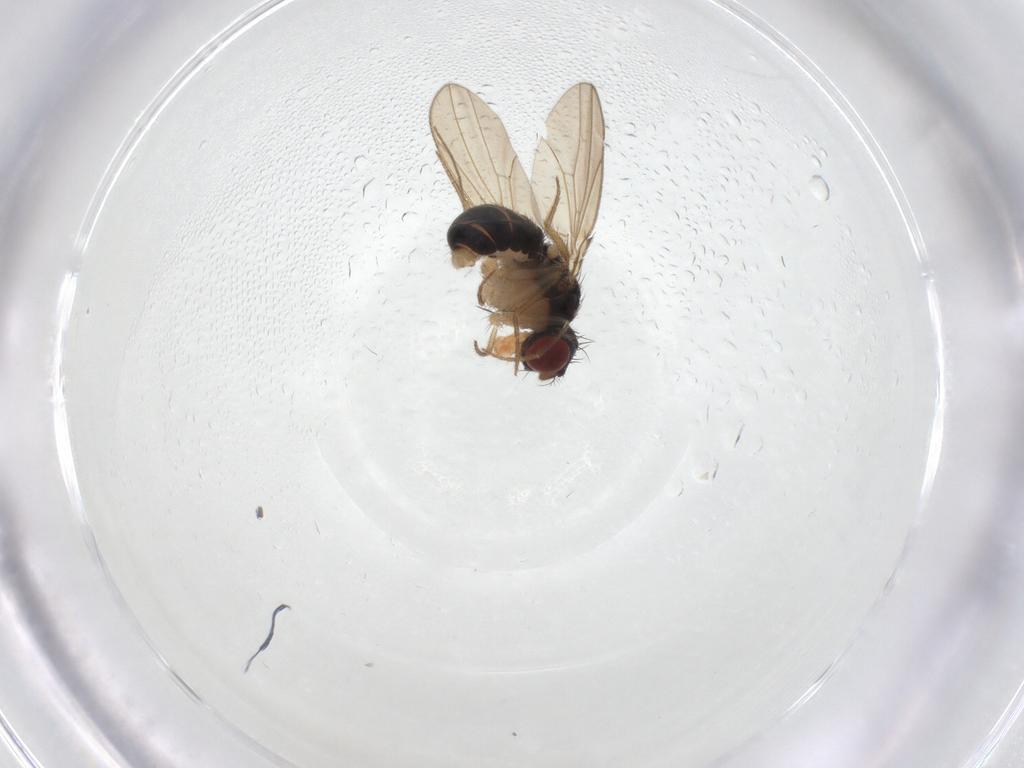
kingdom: Animalia
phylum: Arthropoda
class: Insecta
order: Diptera
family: Drosophilidae
